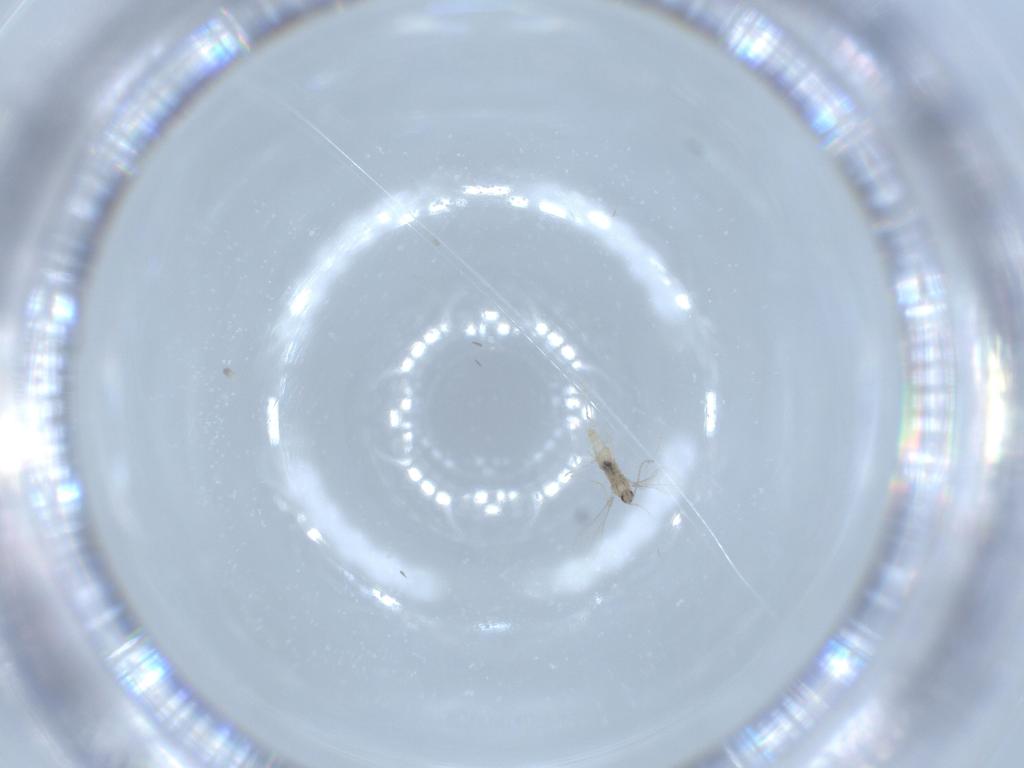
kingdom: Animalia
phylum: Arthropoda
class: Insecta
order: Diptera
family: Cecidomyiidae
